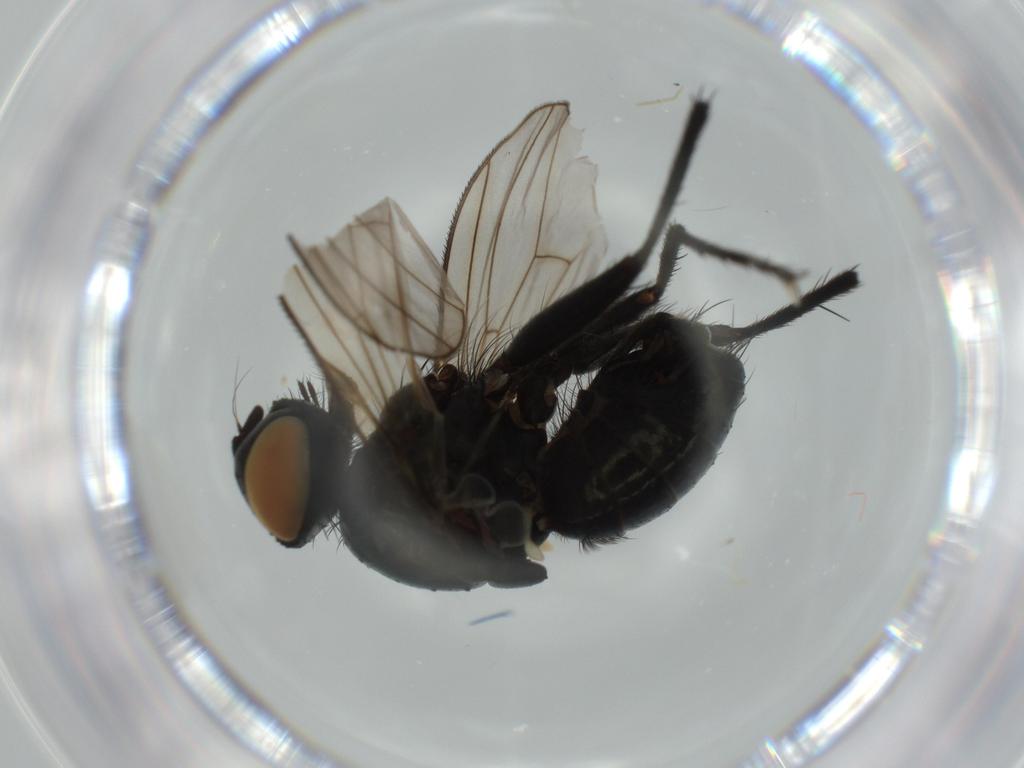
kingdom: Animalia
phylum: Arthropoda
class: Insecta
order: Diptera
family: Muscidae
